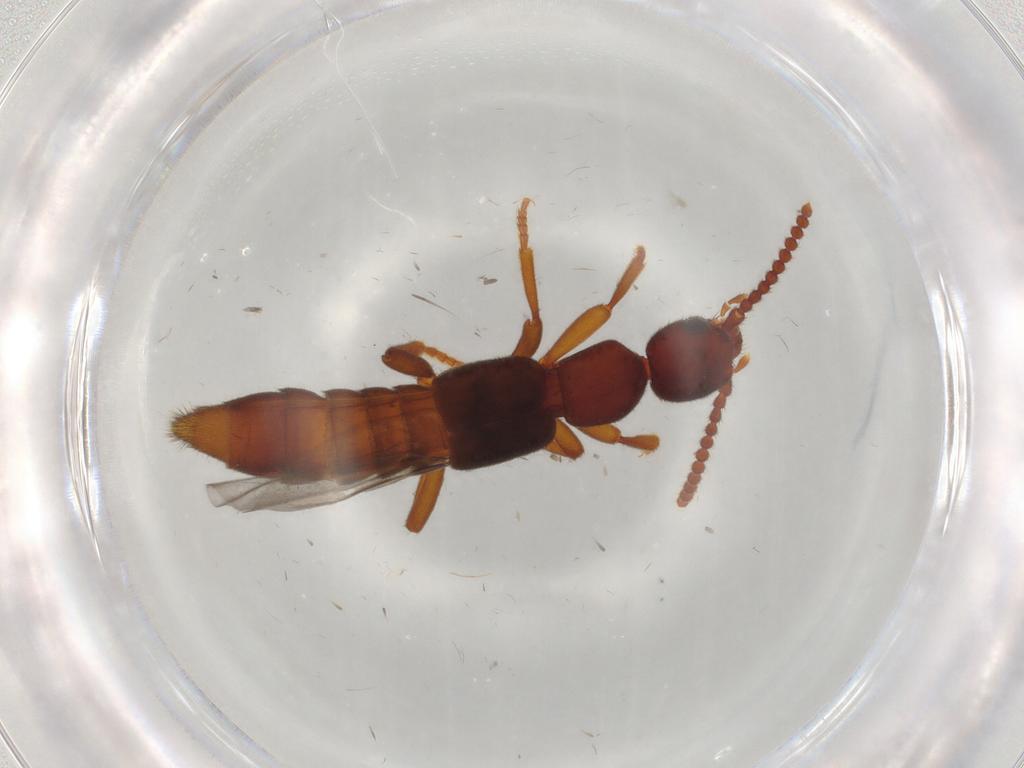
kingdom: Animalia
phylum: Arthropoda
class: Insecta
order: Coleoptera
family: Staphylinidae
